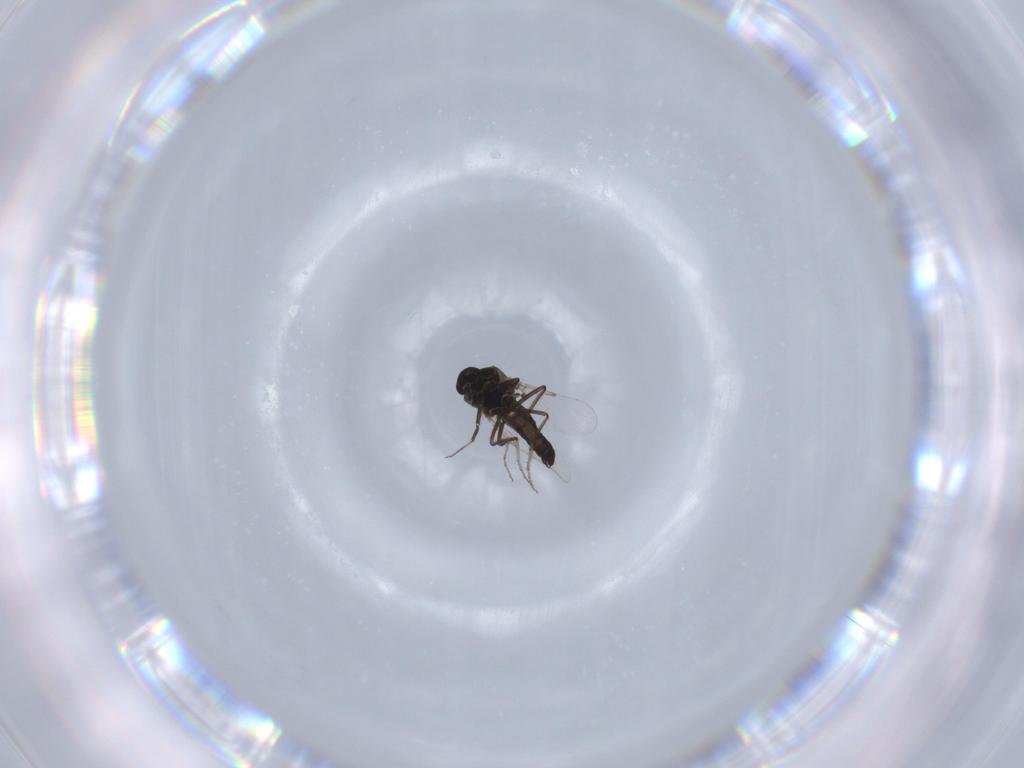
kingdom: Animalia
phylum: Arthropoda
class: Insecta
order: Diptera
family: Ceratopogonidae
